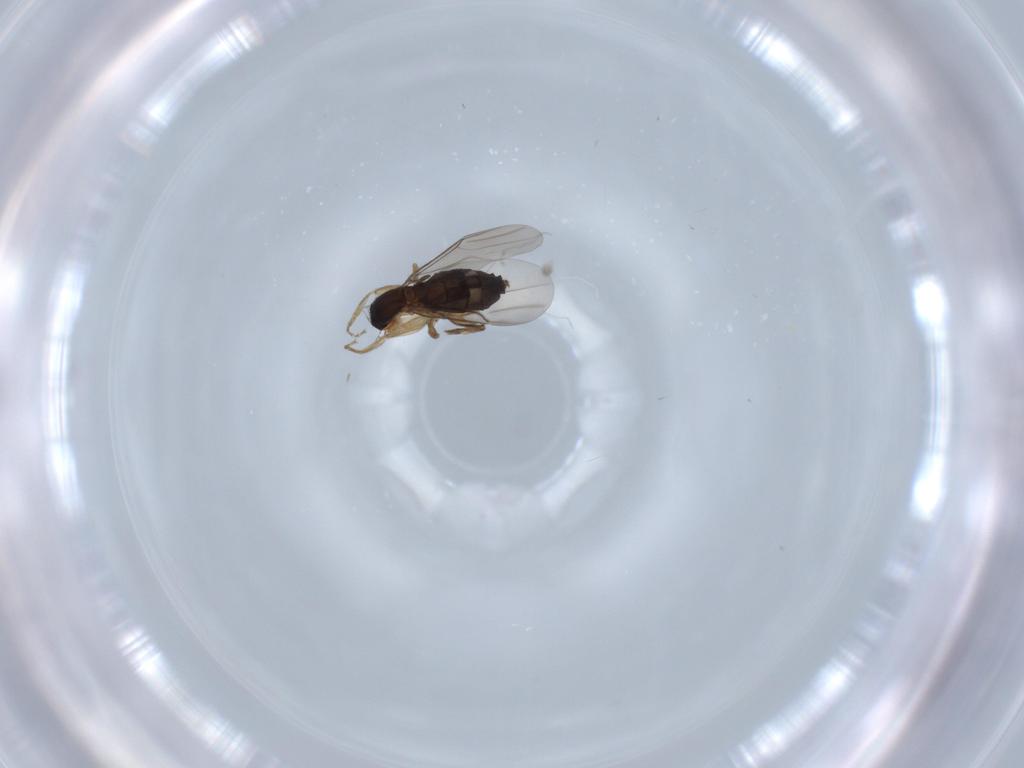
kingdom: Animalia
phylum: Arthropoda
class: Insecta
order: Diptera
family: Phoridae
